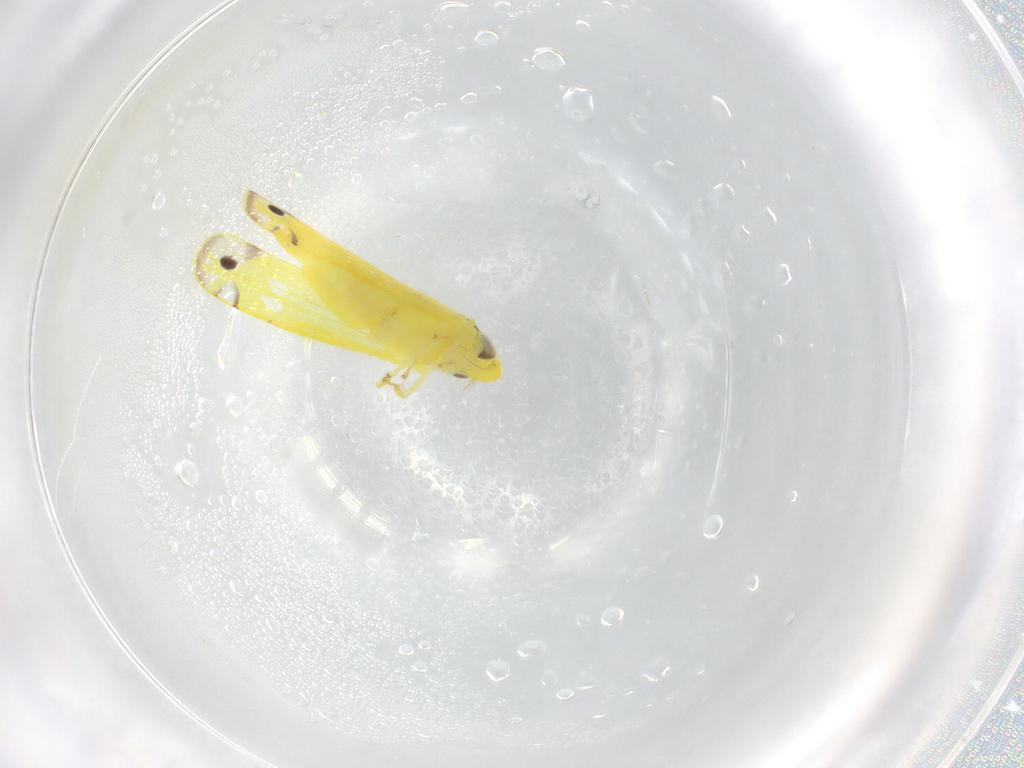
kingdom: Animalia
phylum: Arthropoda
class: Insecta
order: Hemiptera
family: Cicadellidae
